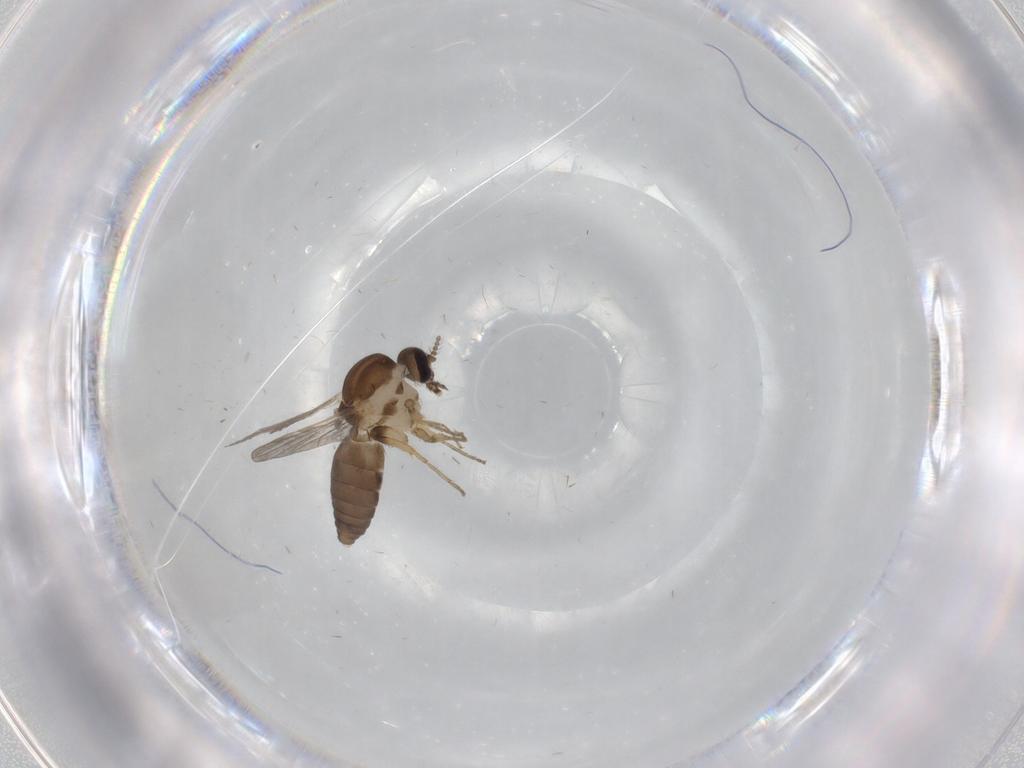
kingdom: Animalia
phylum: Arthropoda
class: Insecta
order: Diptera
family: Ceratopogonidae
